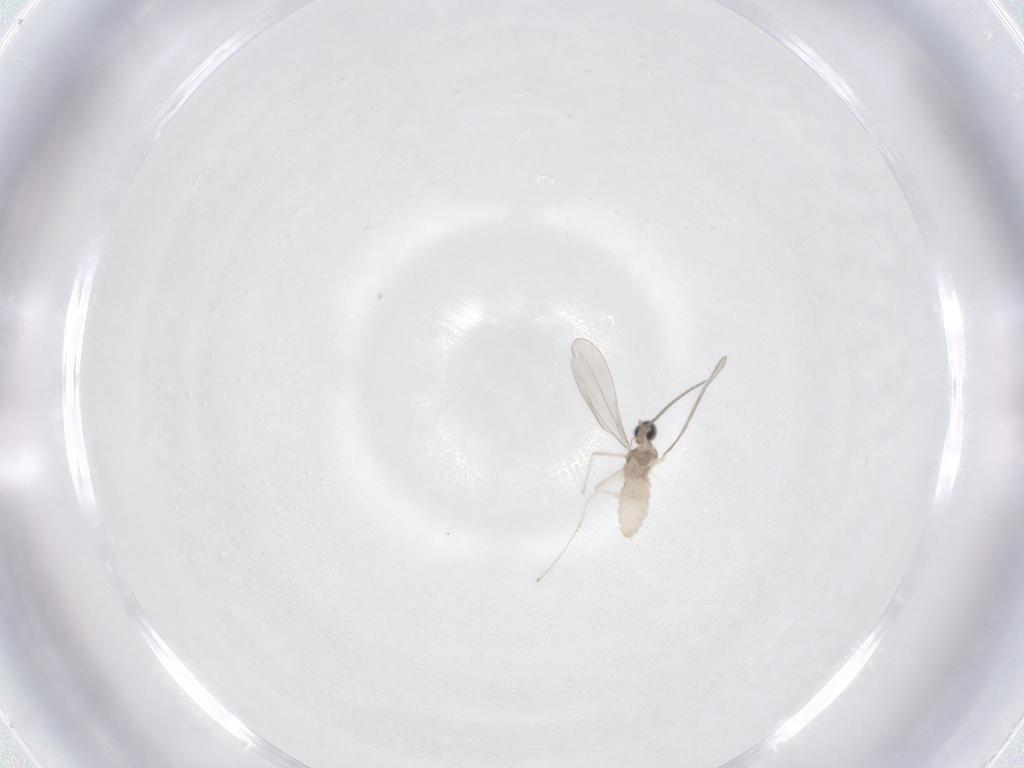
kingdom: Animalia
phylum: Arthropoda
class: Insecta
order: Diptera
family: Cecidomyiidae
